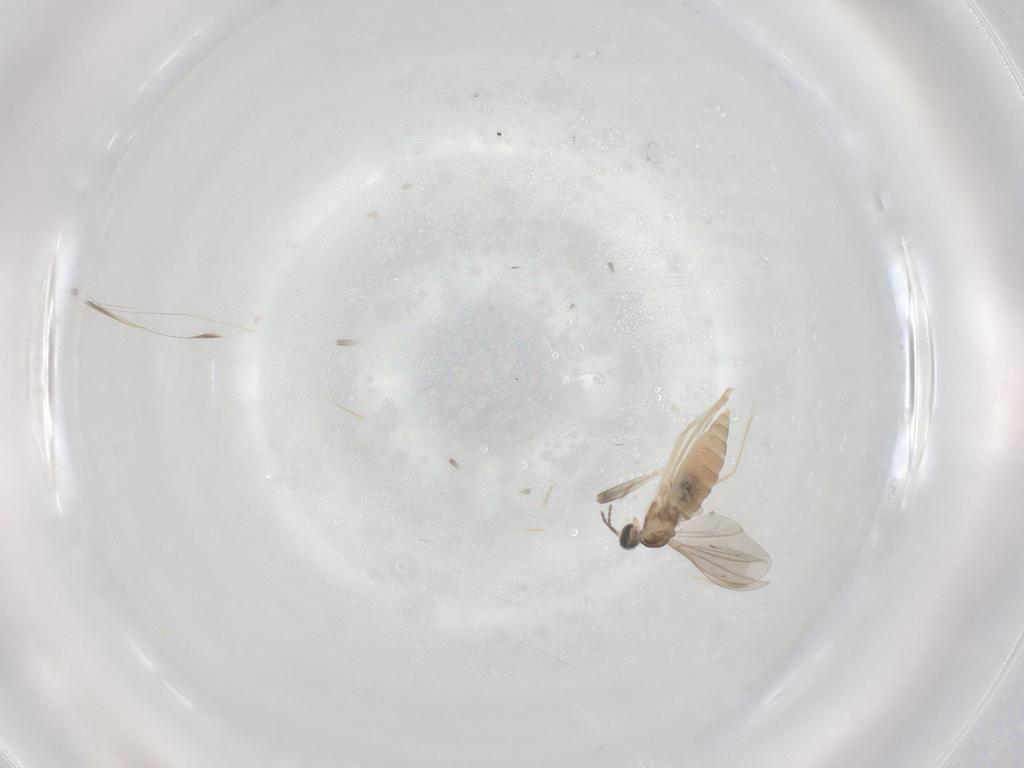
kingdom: Animalia
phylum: Arthropoda
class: Insecta
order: Diptera
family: Cecidomyiidae
